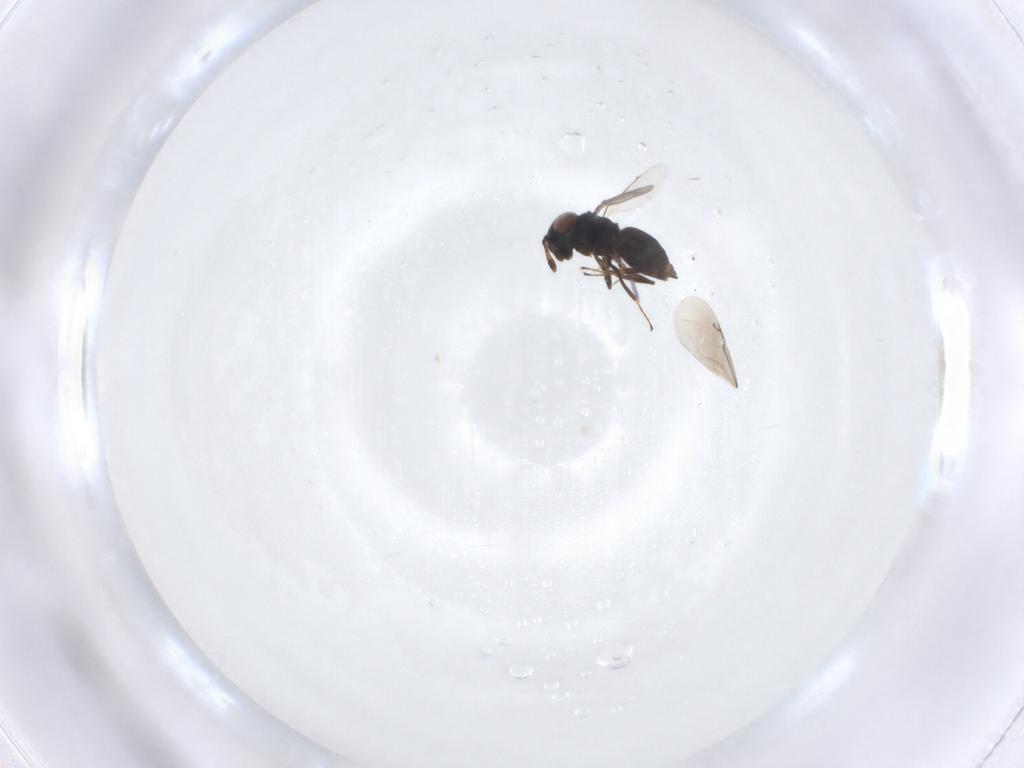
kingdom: Animalia
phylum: Arthropoda
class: Insecta
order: Hymenoptera
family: Eunotidae
